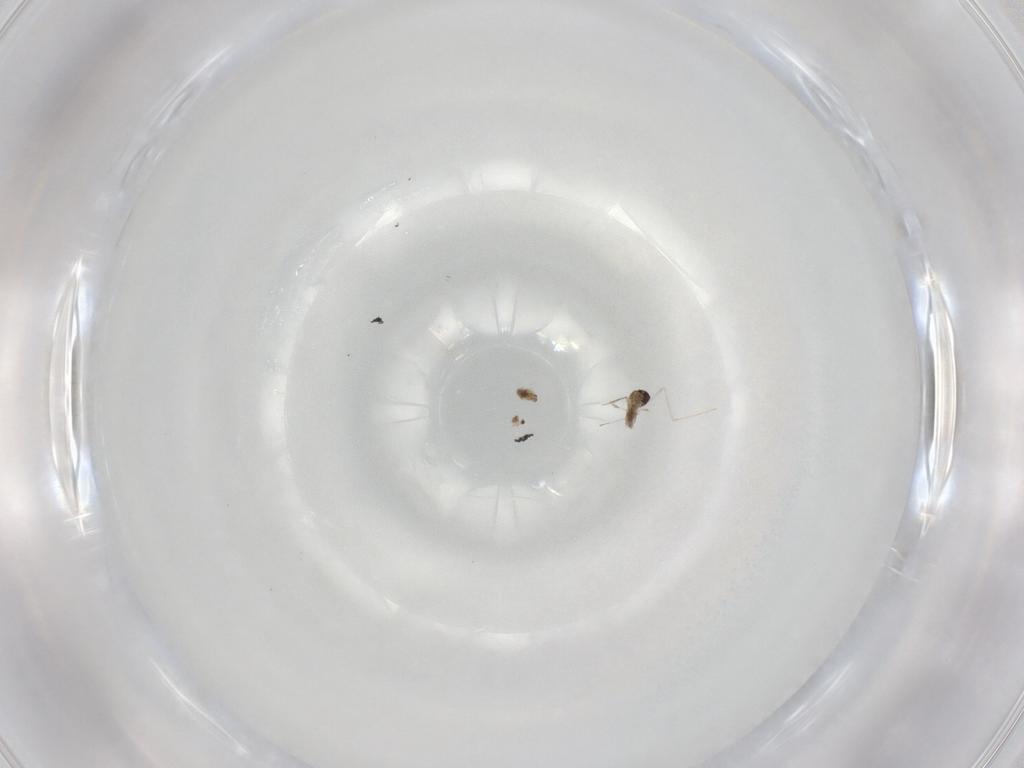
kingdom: Animalia
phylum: Arthropoda
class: Insecta
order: Diptera
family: Cecidomyiidae
